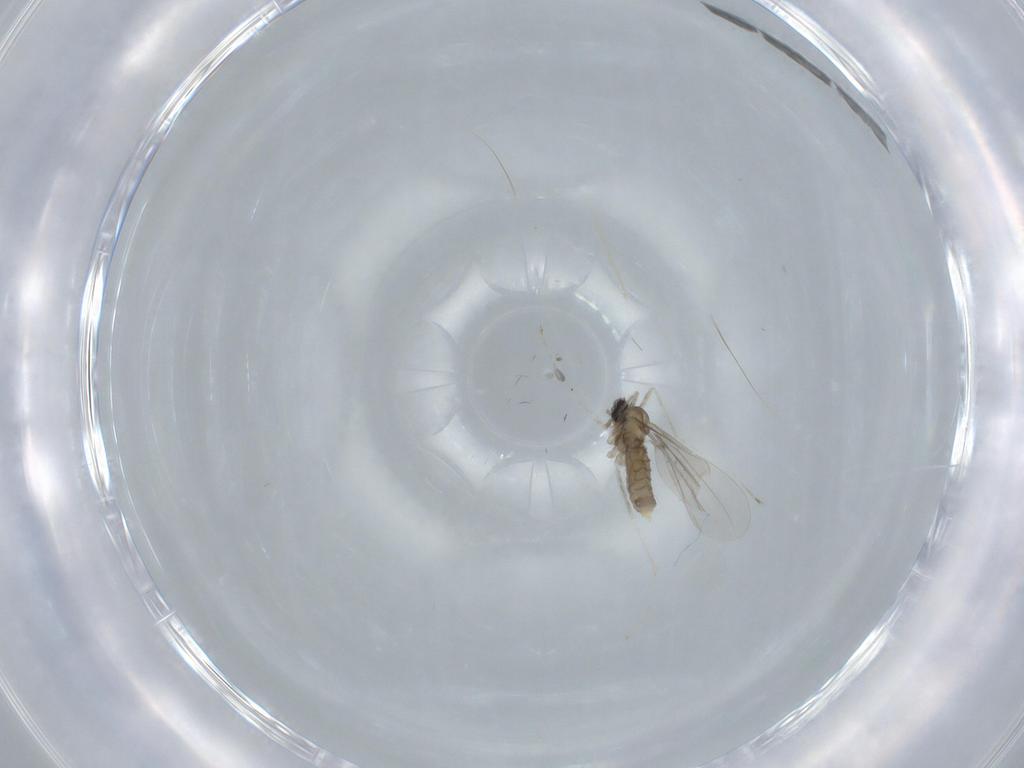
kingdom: Animalia
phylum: Arthropoda
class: Insecta
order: Diptera
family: Cecidomyiidae
